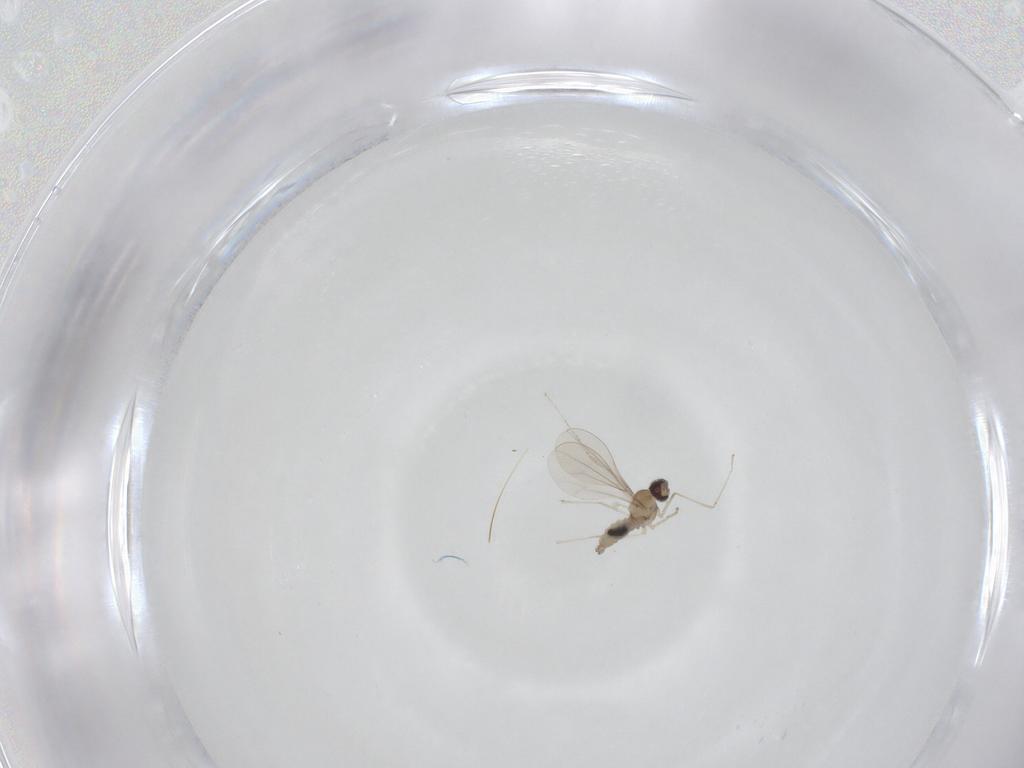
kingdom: Animalia
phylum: Arthropoda
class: Insecta
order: Diptera
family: Cecidomyiidae
